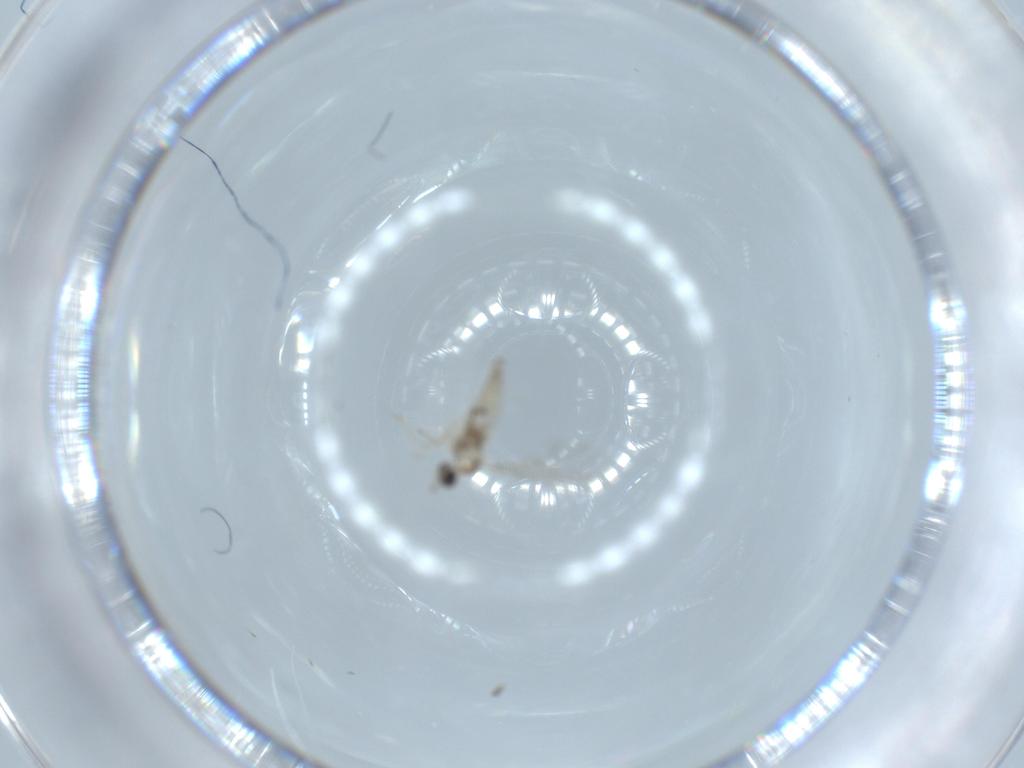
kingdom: Animalia
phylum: Arthropoda
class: Insecta
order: Diptera
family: Chironomidae
